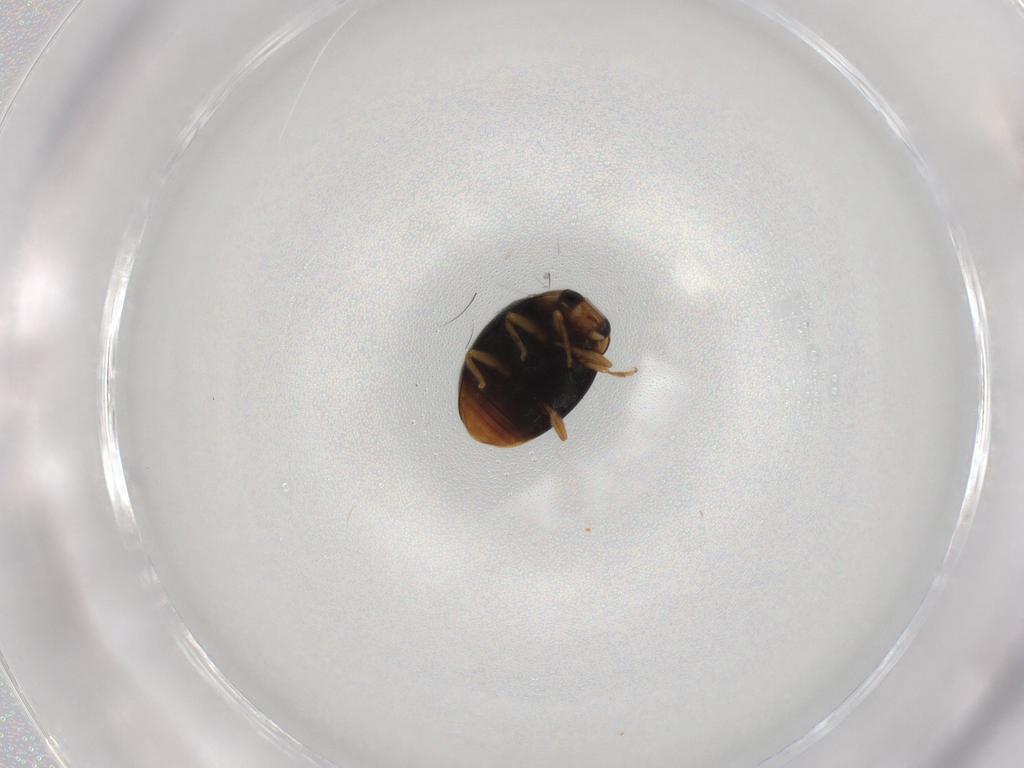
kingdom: Animalia
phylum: Arthropoda
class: Insecta
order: Coleoptera
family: Coccinellidae
